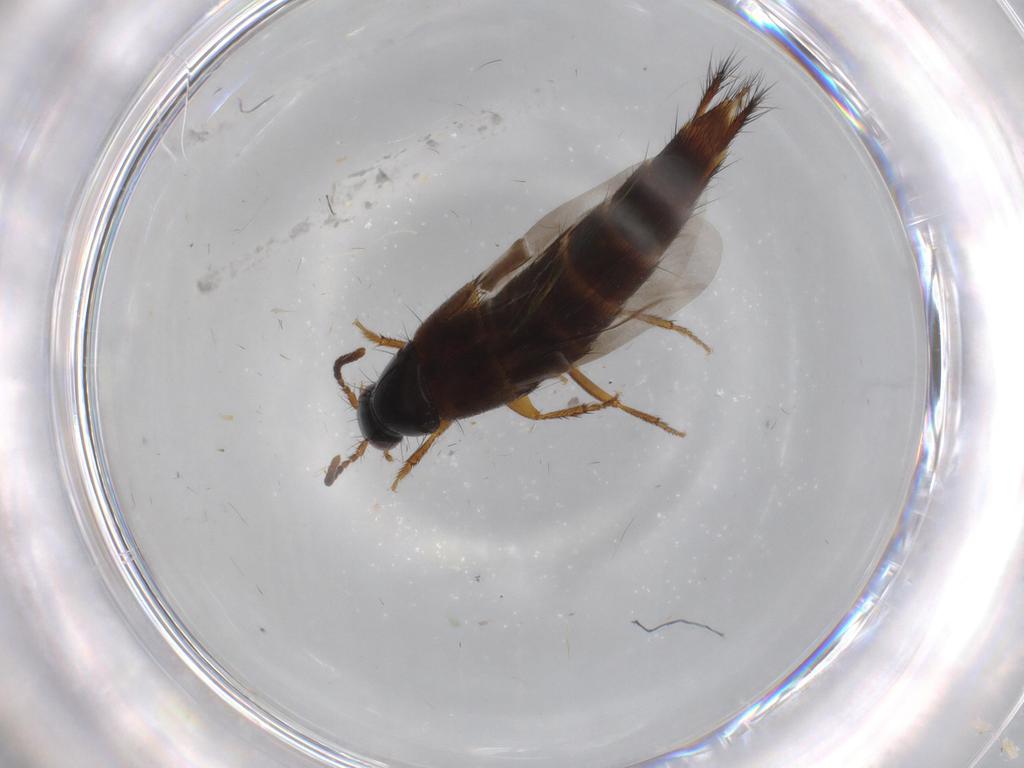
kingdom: Animalia
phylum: Arthropoda
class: Insecta
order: Coleoptera
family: Staphylinidae
